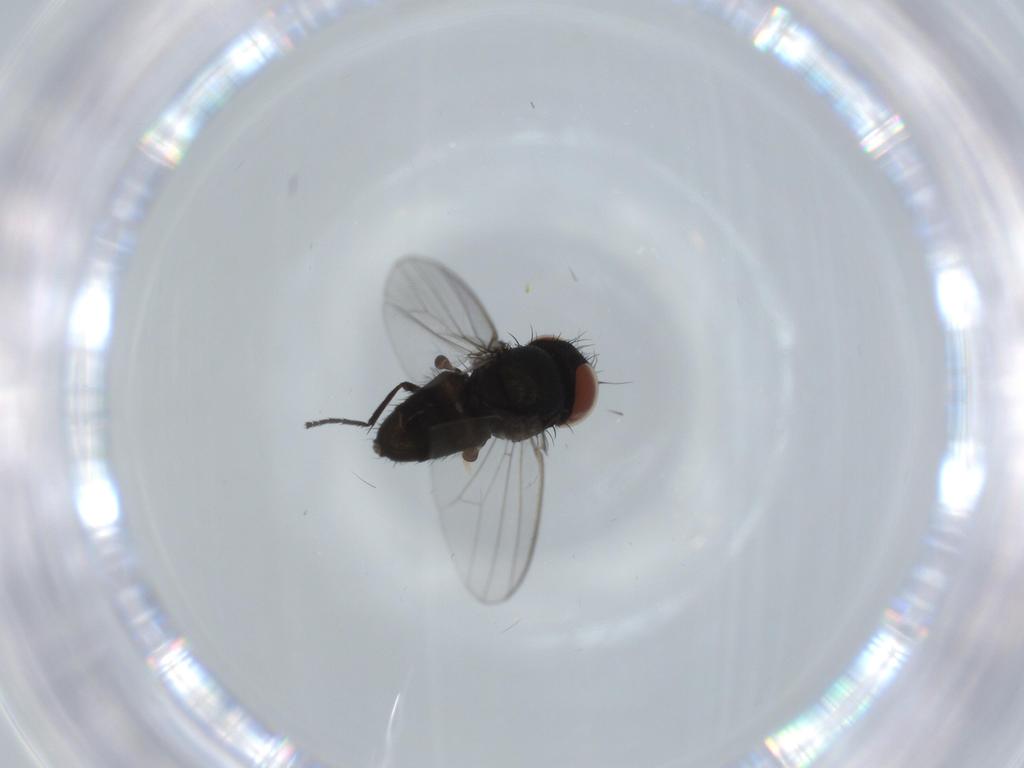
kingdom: Animalia
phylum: Arthropoda
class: Insecta
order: Diptera
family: Milichiidae
